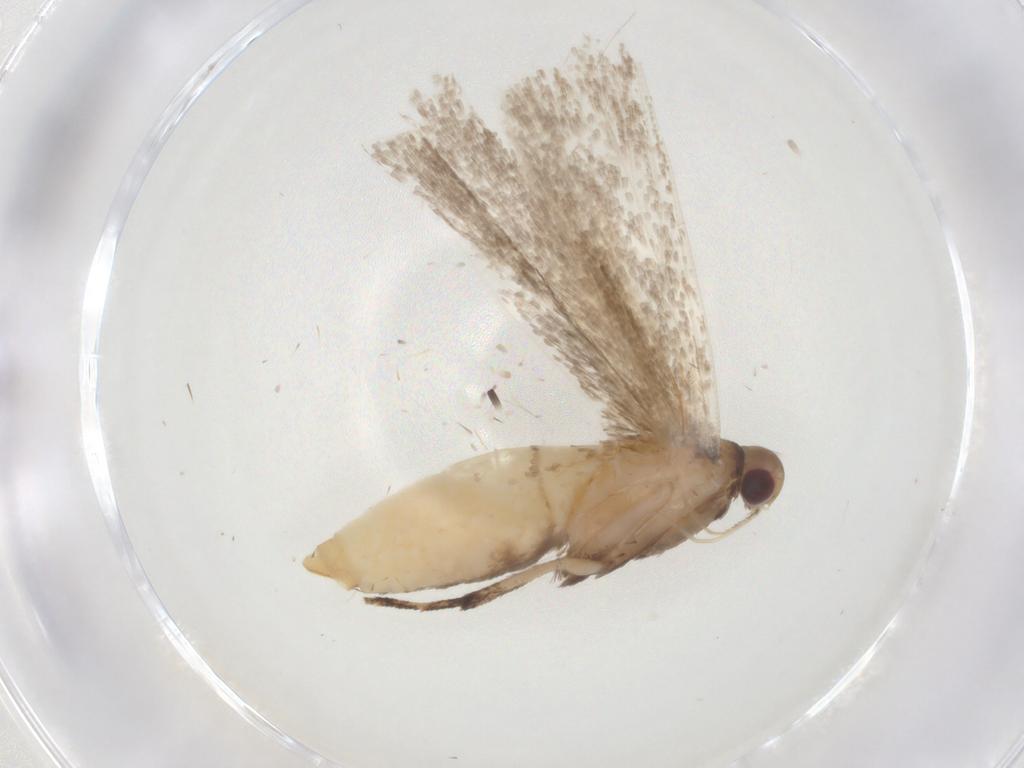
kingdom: Animalia
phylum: Arthropoda
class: Insecta
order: Lepidoptera
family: Crambidae
